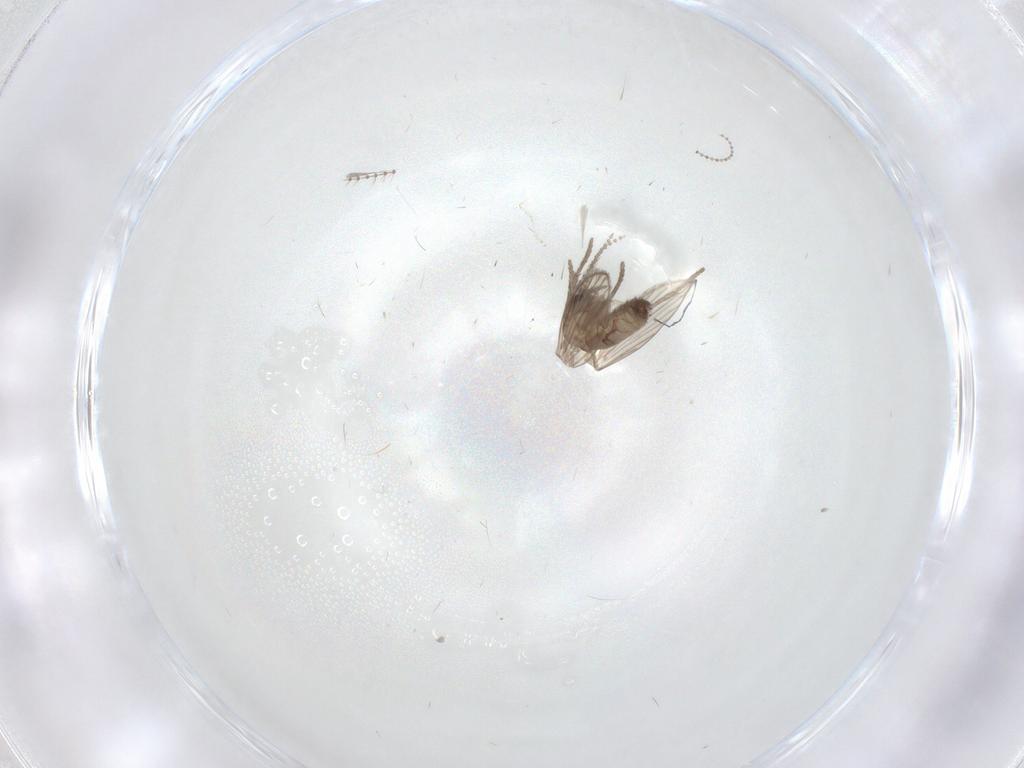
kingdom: Animalia
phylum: Arthropoda
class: Insecta
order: Diptera
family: Psychodidae
